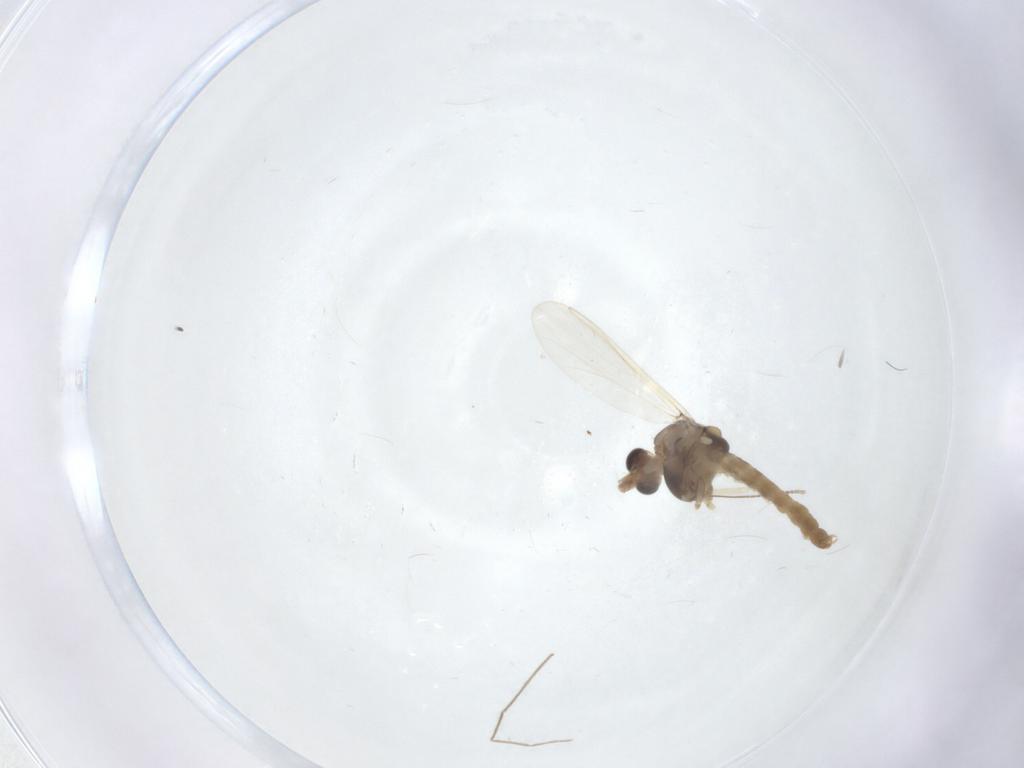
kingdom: Animalia
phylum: Arthropoda
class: Insecta
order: Diptera
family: Chironomidae
